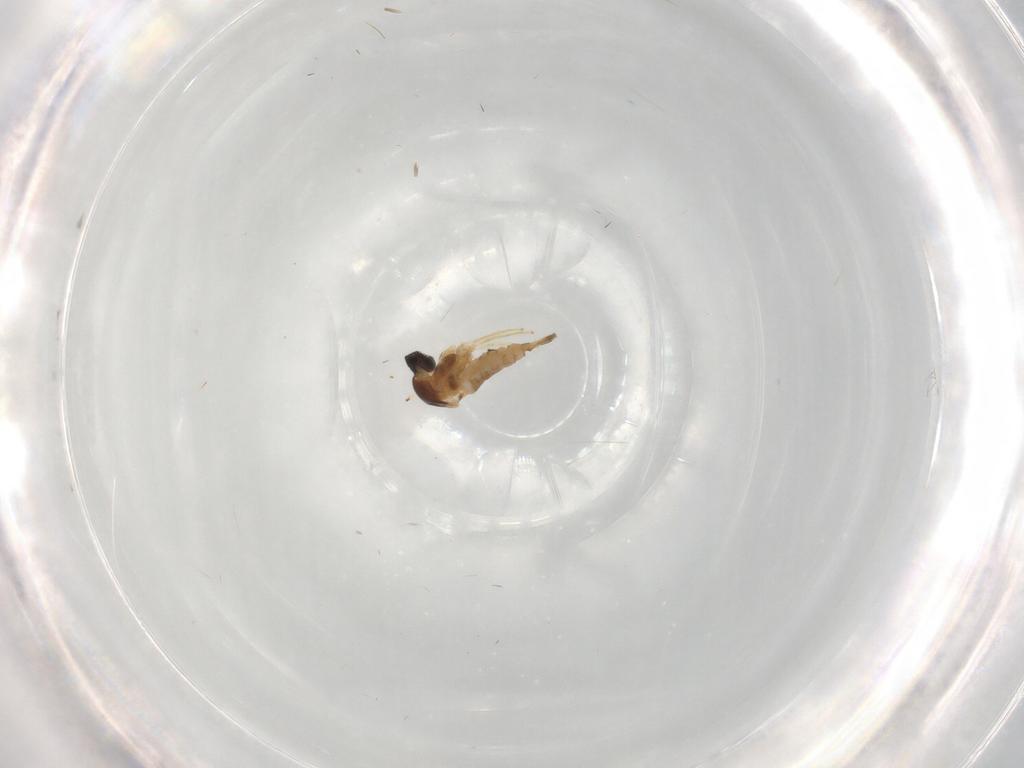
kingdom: Animalia
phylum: Arthropoda
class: Insecta
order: Diptera
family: Cecidomyiidae
